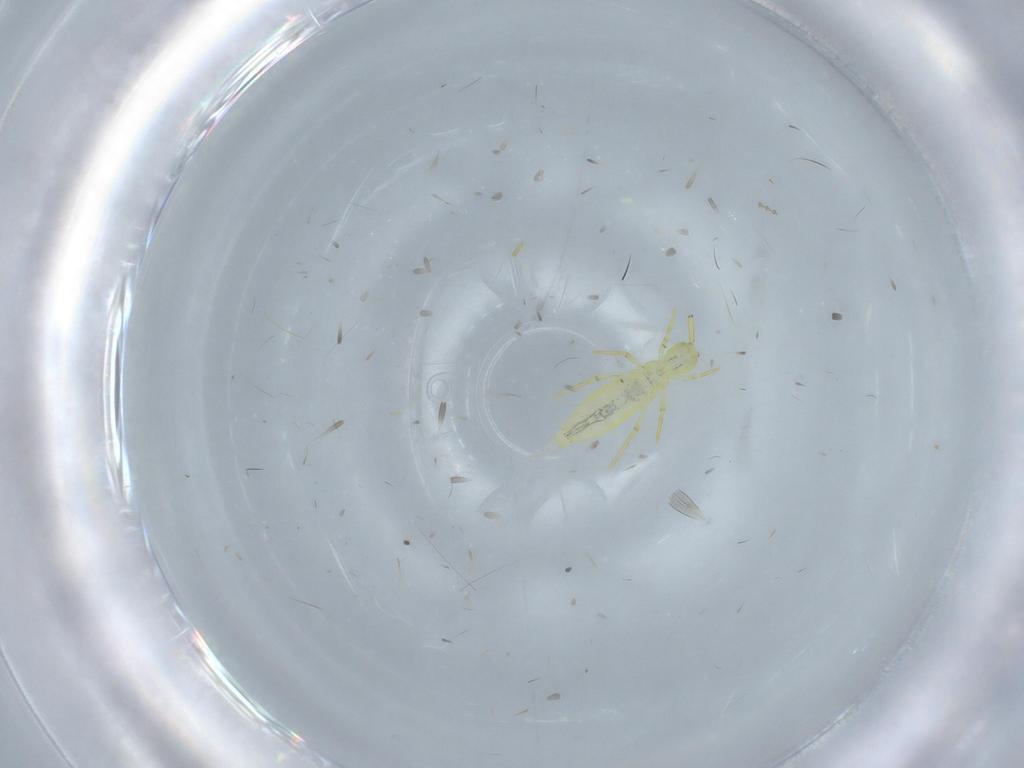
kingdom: Animalia
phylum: Arthropoda
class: Collembola
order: Entomobryomorpha
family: Paronellidae
